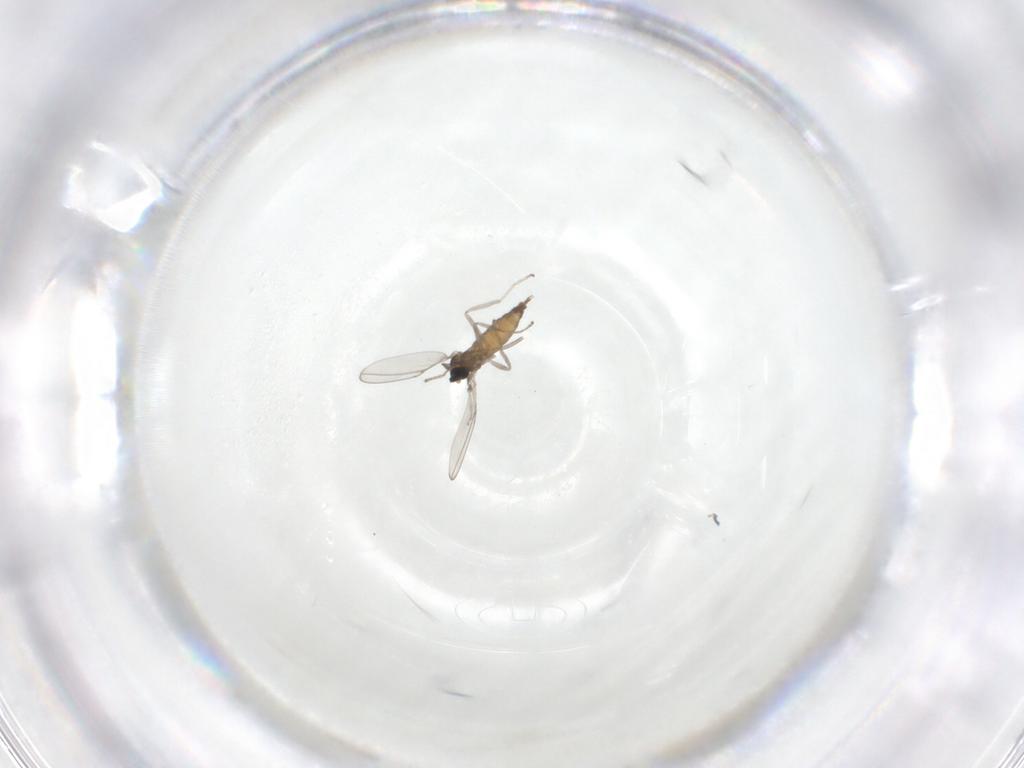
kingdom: Animalia
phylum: Arthropoda
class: Insecta
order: Diptera
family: Cecidomyiidae
